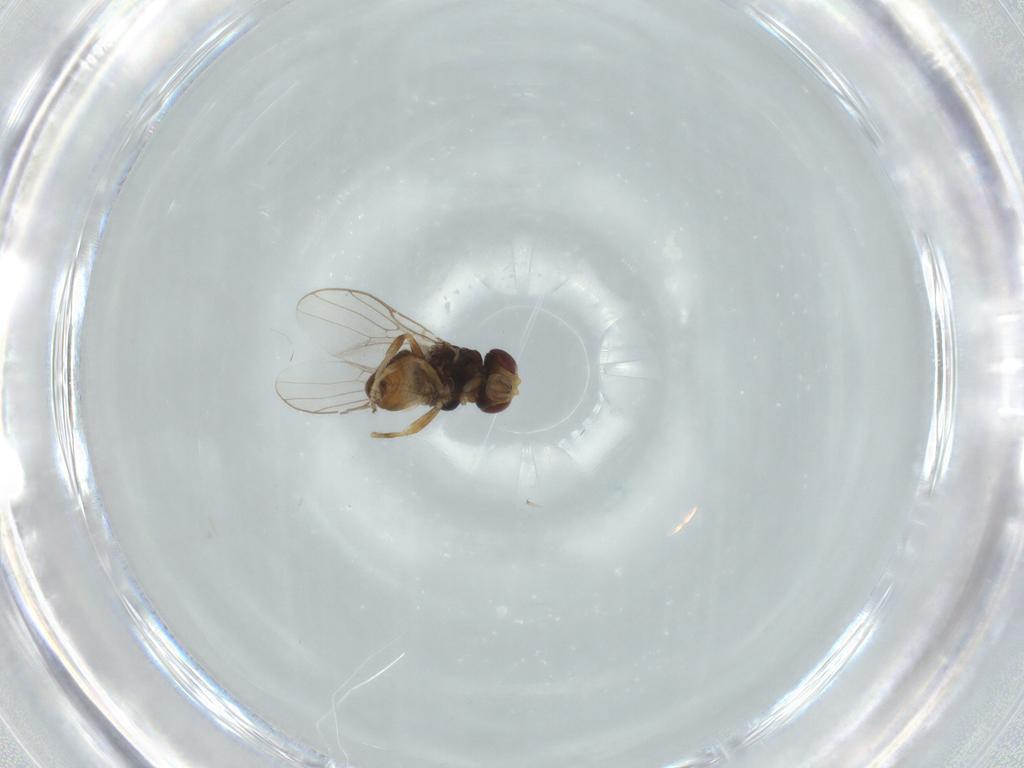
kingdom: Animalia
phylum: Arthropoda
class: Insecta
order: Diptera
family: Chloropidae
